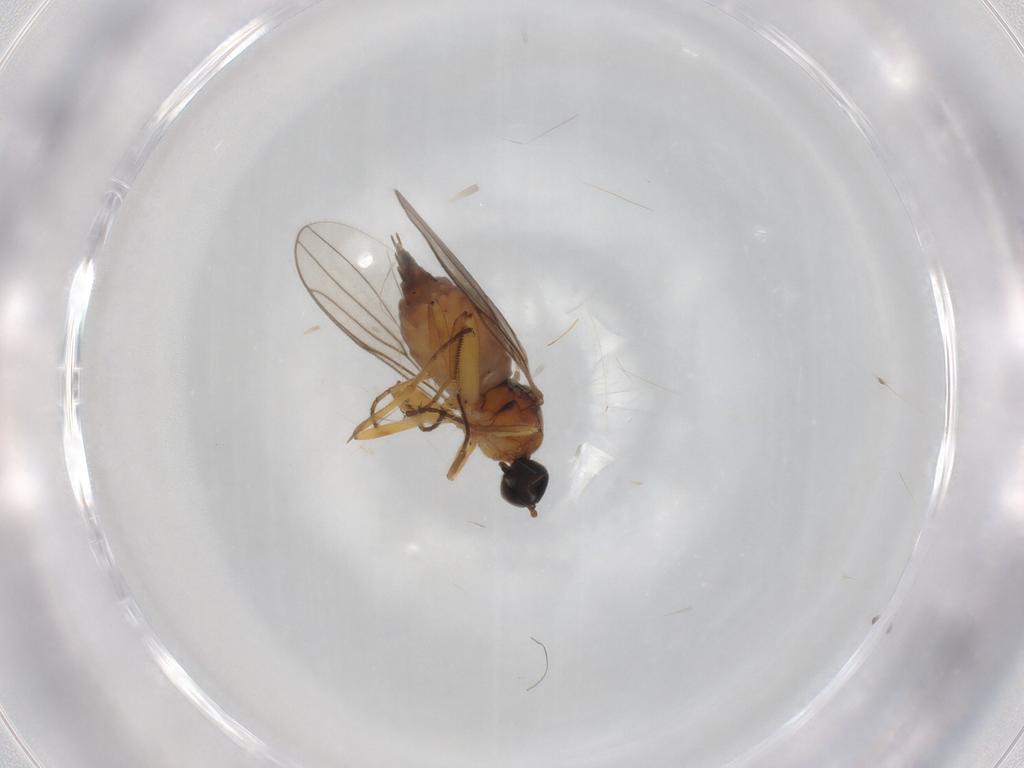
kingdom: Animalia
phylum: Arthropoda
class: Insecta
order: Diptera
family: Hybotidae
